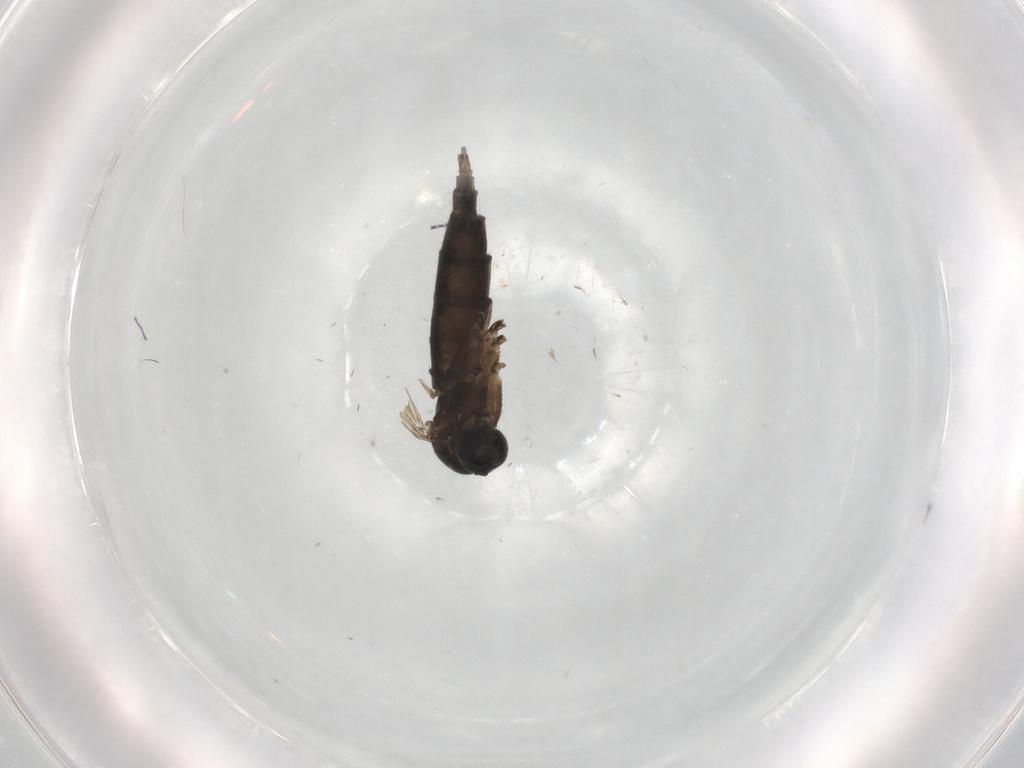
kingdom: Animalia
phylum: Arthropoda
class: Insecta
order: Diptera
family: Sciaridae
